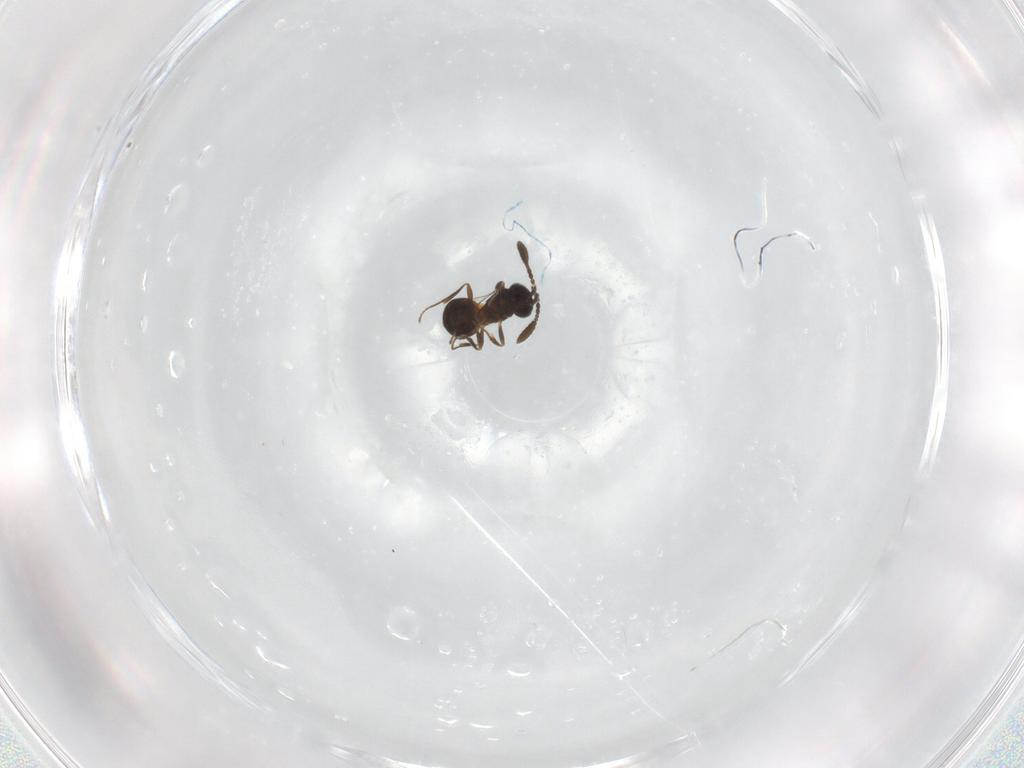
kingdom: Animalia
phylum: Arthropoda
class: Insecta
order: Hymenoptera
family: Scelionidae
